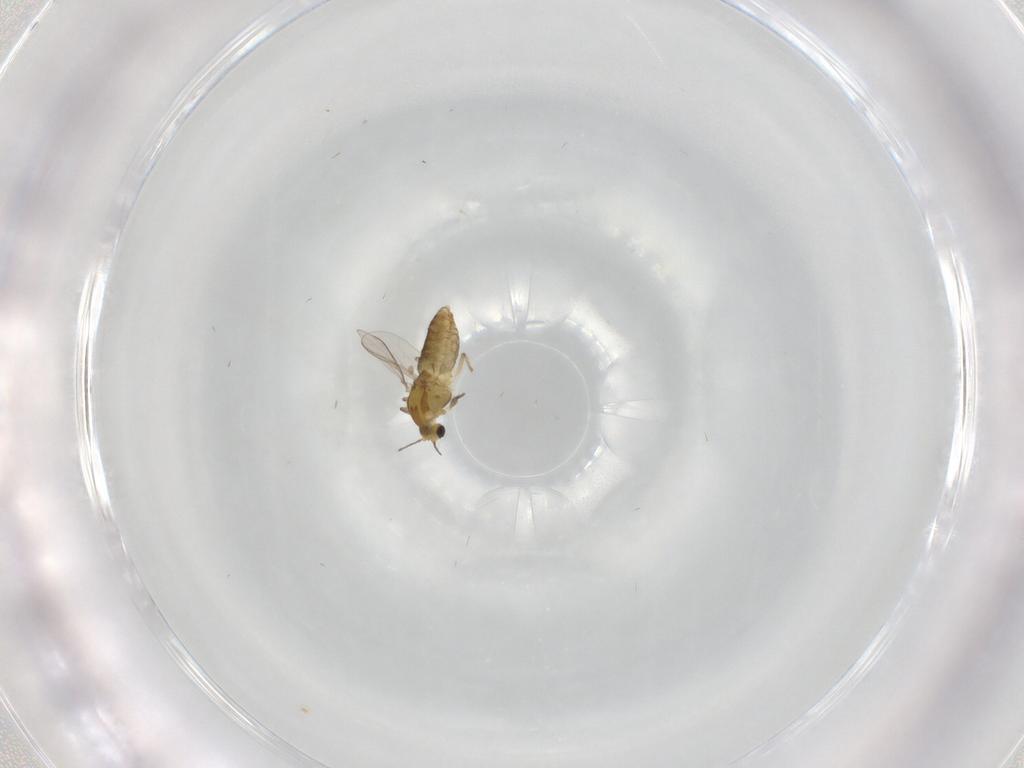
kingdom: Animalia
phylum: Arthropoda
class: Insecta
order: Diptera
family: Chironomidae
